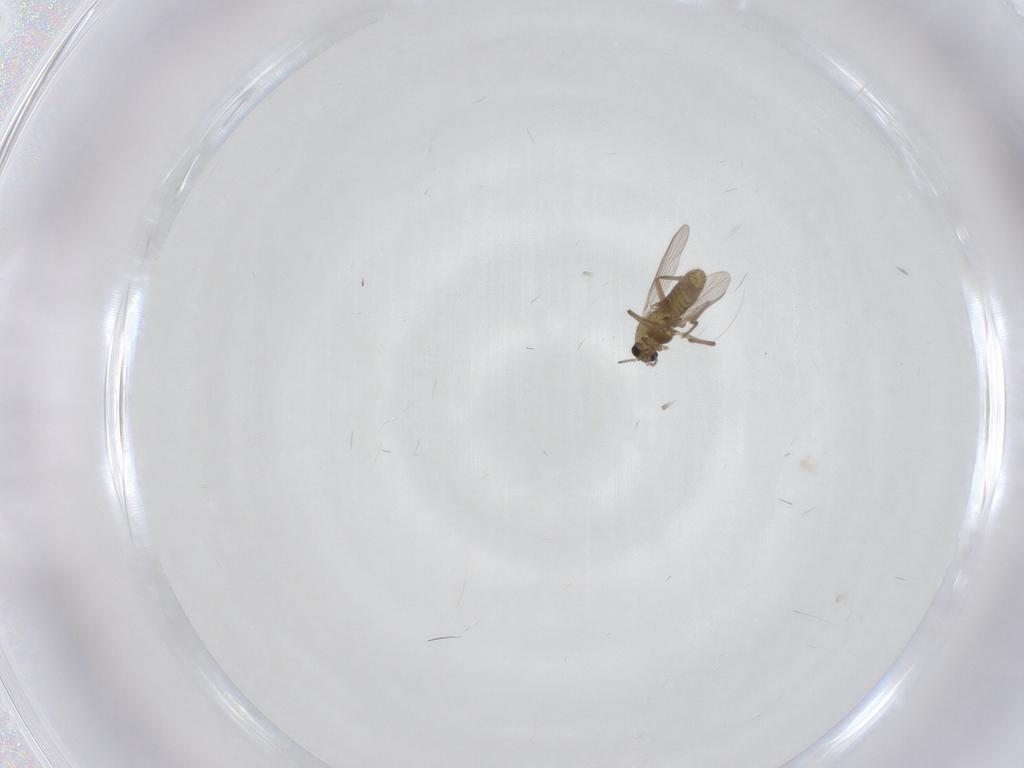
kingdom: Animalia
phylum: Arthropoda
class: Insecta
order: Diptera
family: Chironomidae
